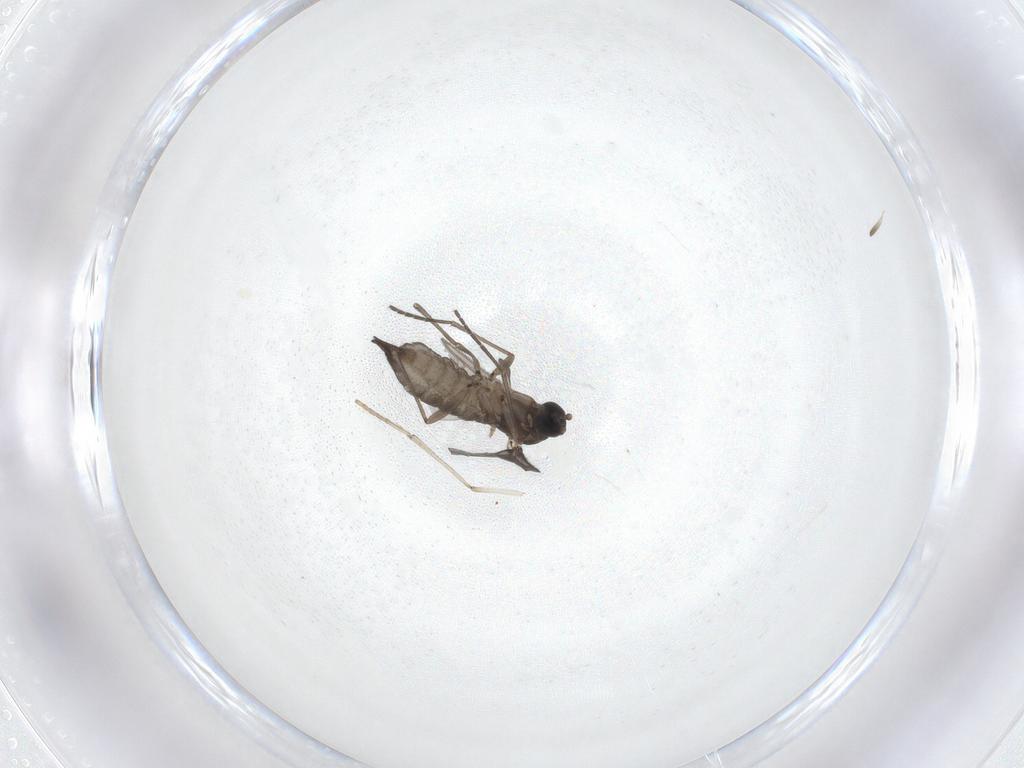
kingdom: Animalia
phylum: Arthropoda
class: Insecta
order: Diptera
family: Sciaridae
